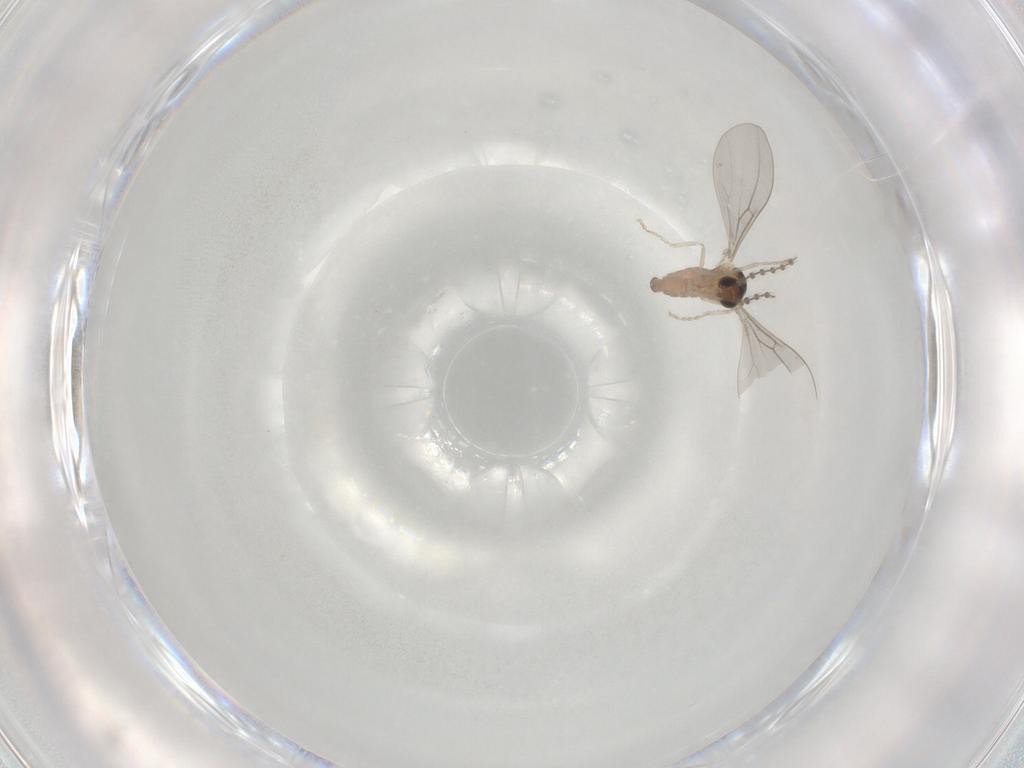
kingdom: Animalia
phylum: Arthropoda
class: Insecta
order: Diptera
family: Cecidomyiidae
